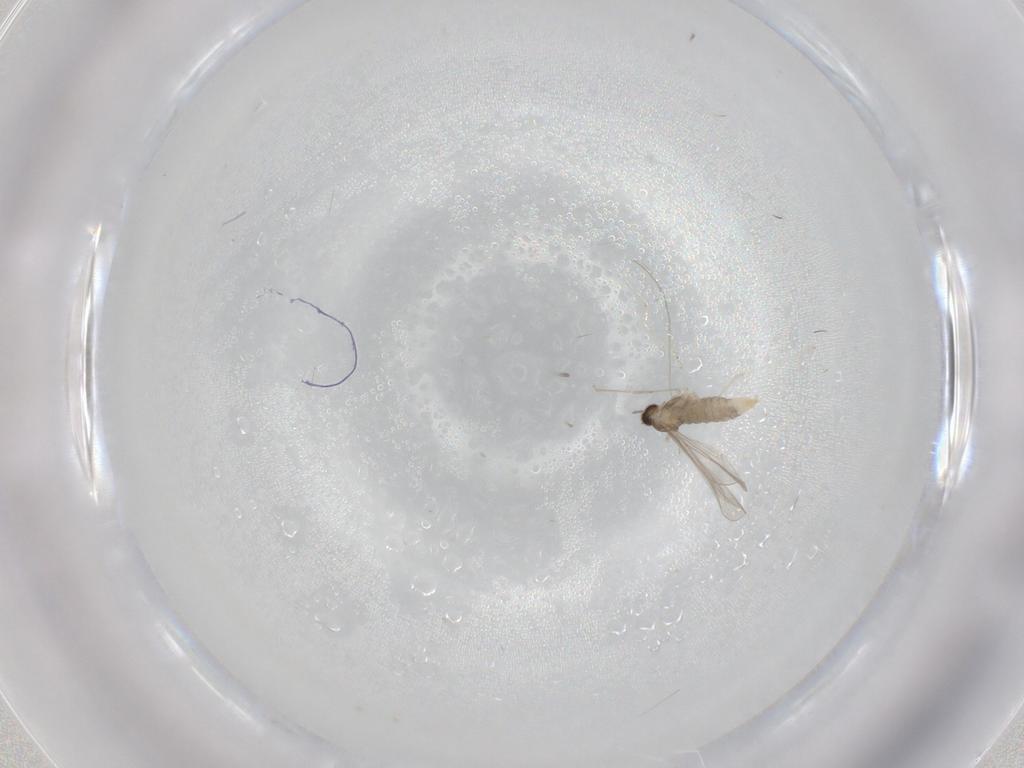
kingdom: Animalia
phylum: Arthropoda
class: Insecta
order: Diptera
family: Cecidomyiidae
